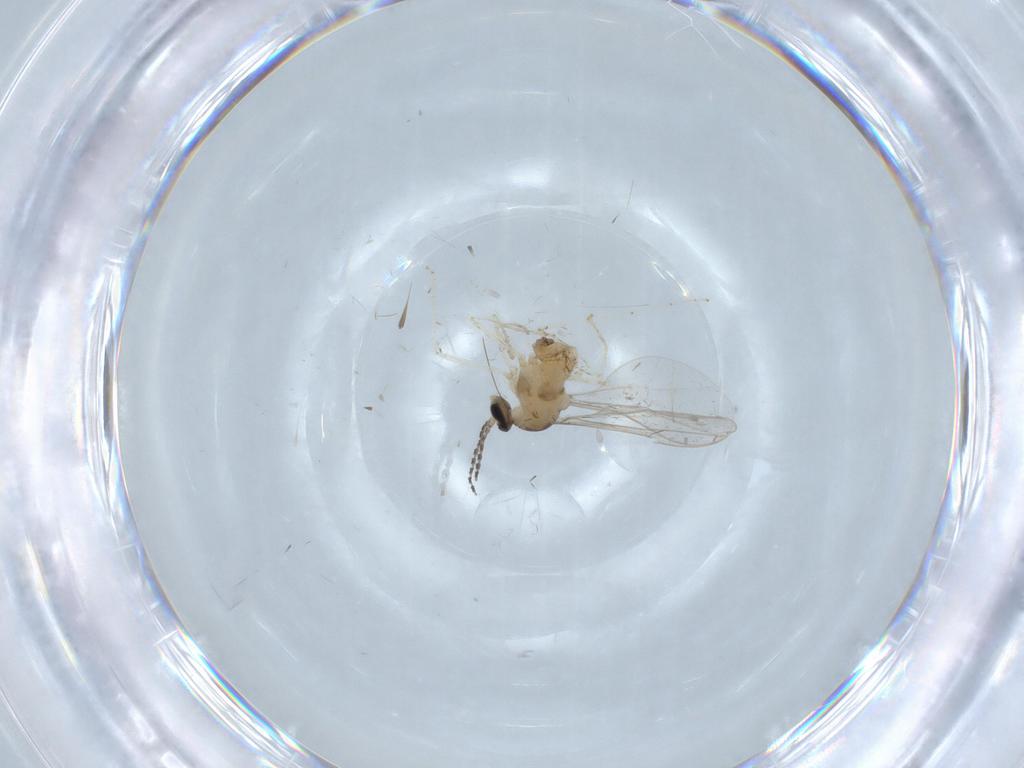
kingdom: Animalia
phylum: Arthropoda
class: Insecta
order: Diptera
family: Cecidomyiidae
